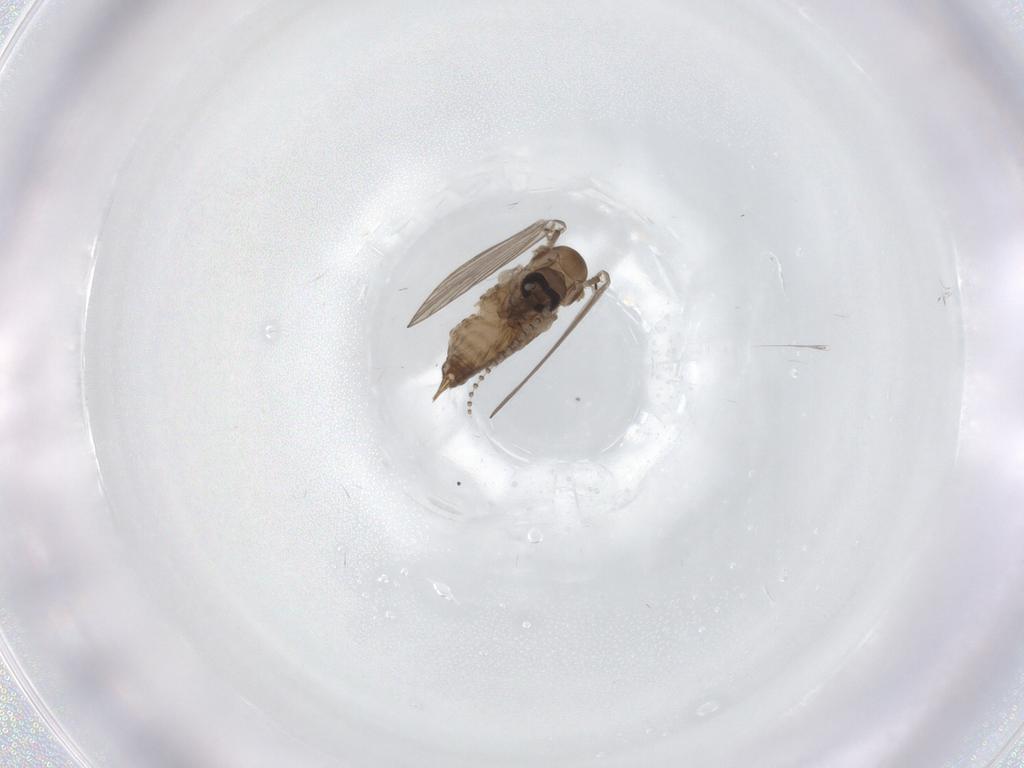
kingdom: Animalia
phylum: Arthropoda
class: Insecta
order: Diptera
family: Psychodidae
